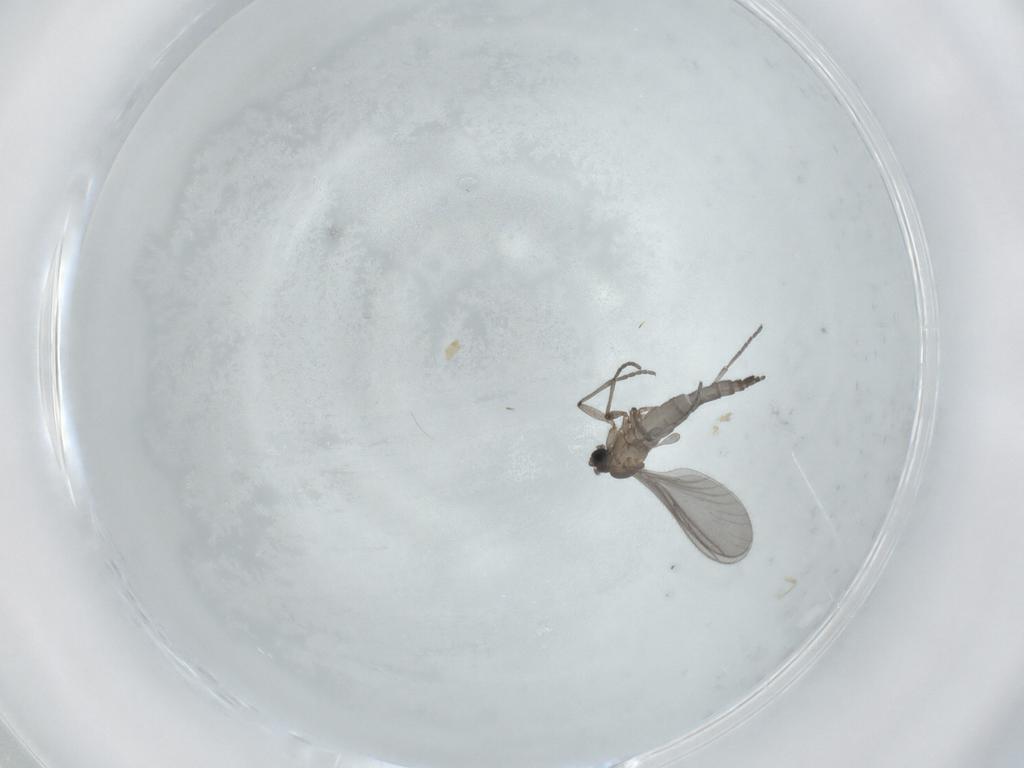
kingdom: Animalia
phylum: Arthropoda
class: Insecta
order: Diptera
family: Sciaridae
